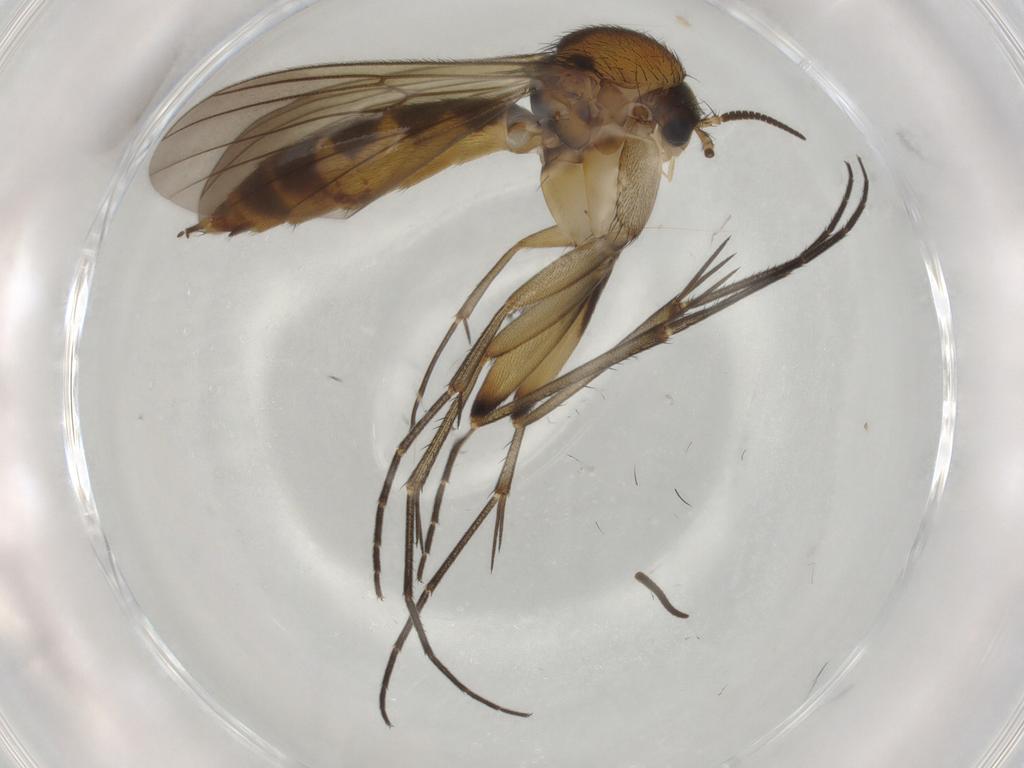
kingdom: Animalia
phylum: Arthropoda
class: Insecta
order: Diptera
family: Mycetophilidae
